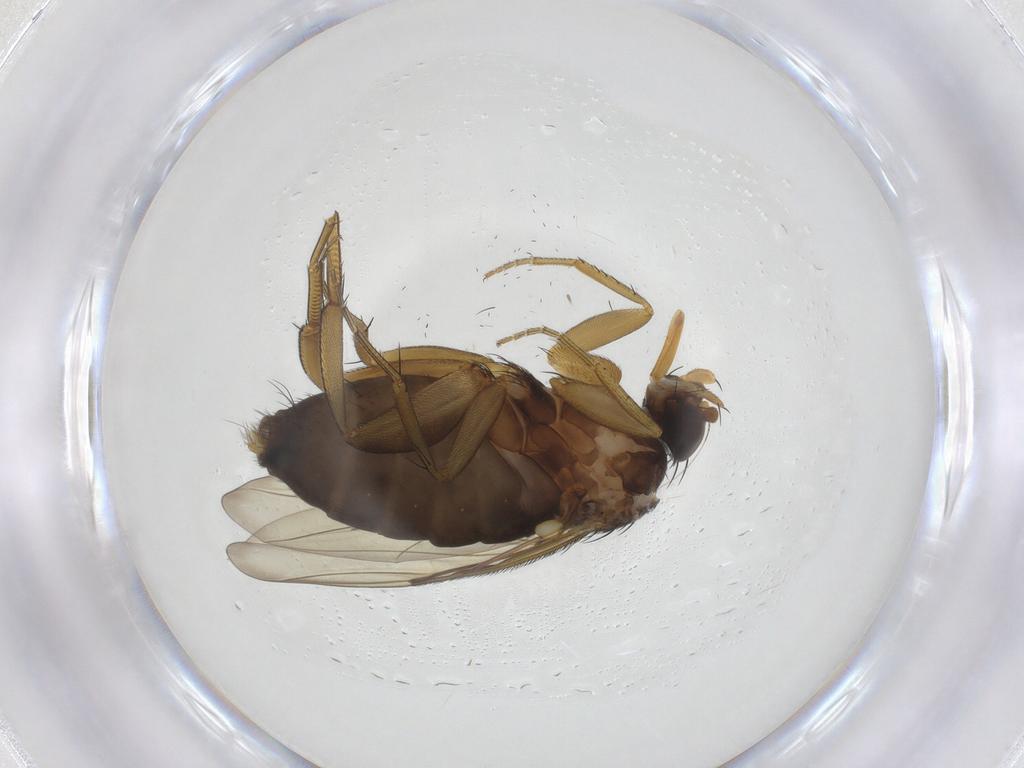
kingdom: Animalia
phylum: Arthropoda
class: Insecta
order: Diptera
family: Phoridae
